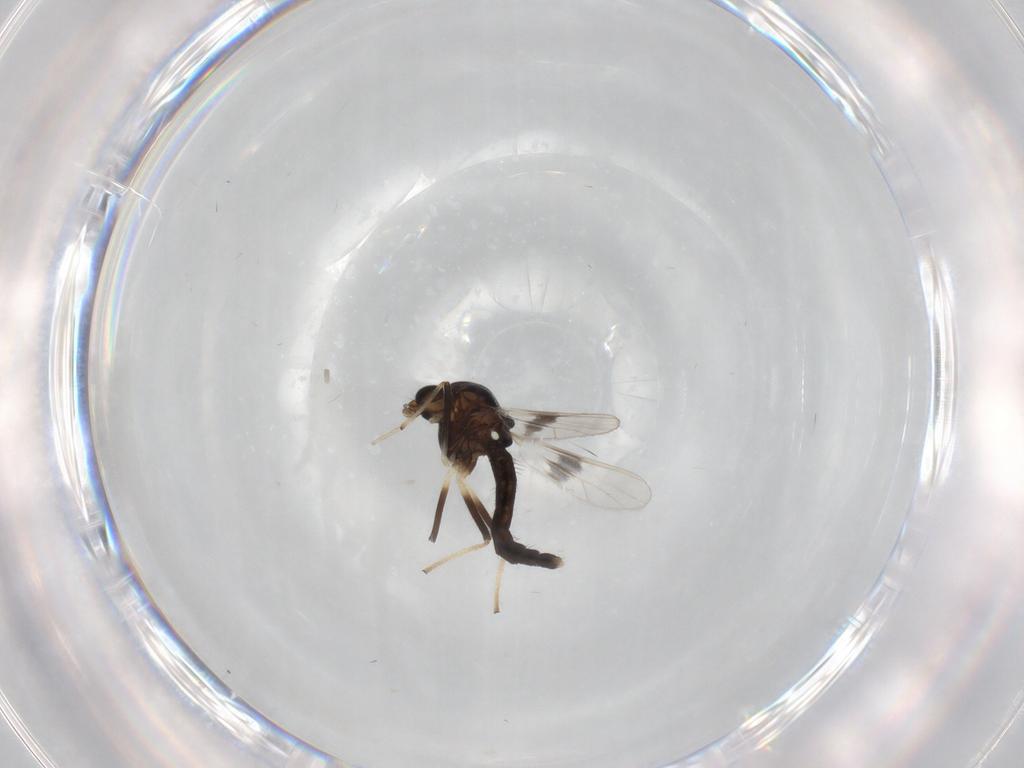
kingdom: Animalia
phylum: Arthropoda
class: Insecta
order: Diptera
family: Chironomidae
